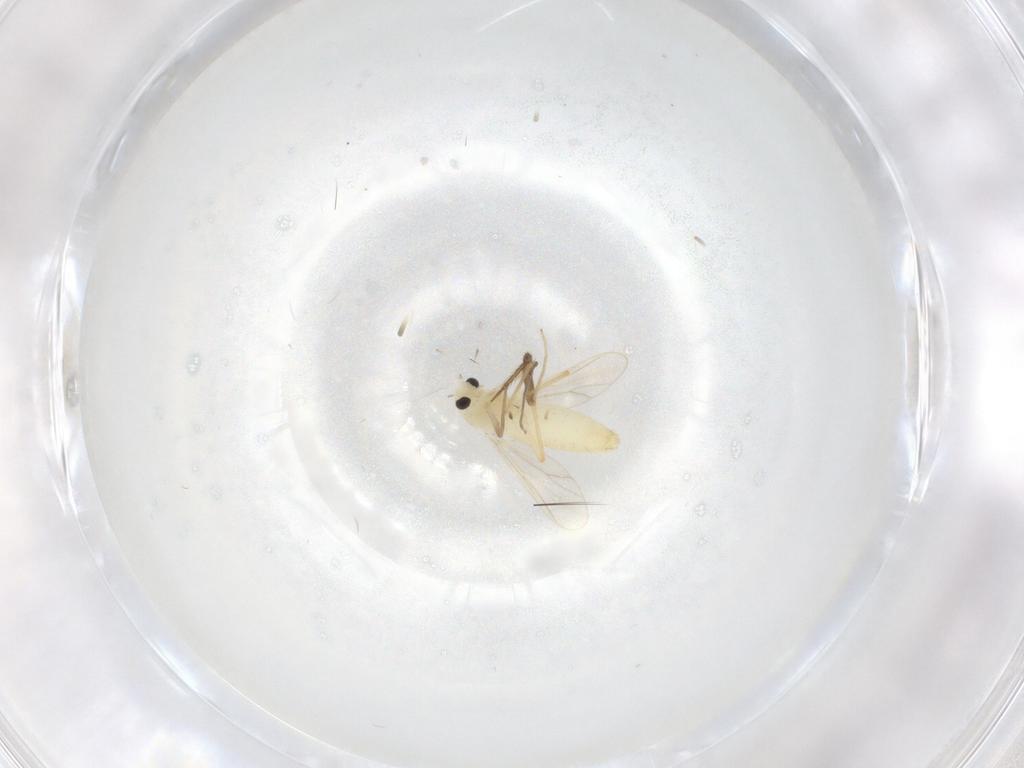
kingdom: Animalia
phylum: Arthropoda
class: Insecta
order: Diptera
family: Chironomidae
